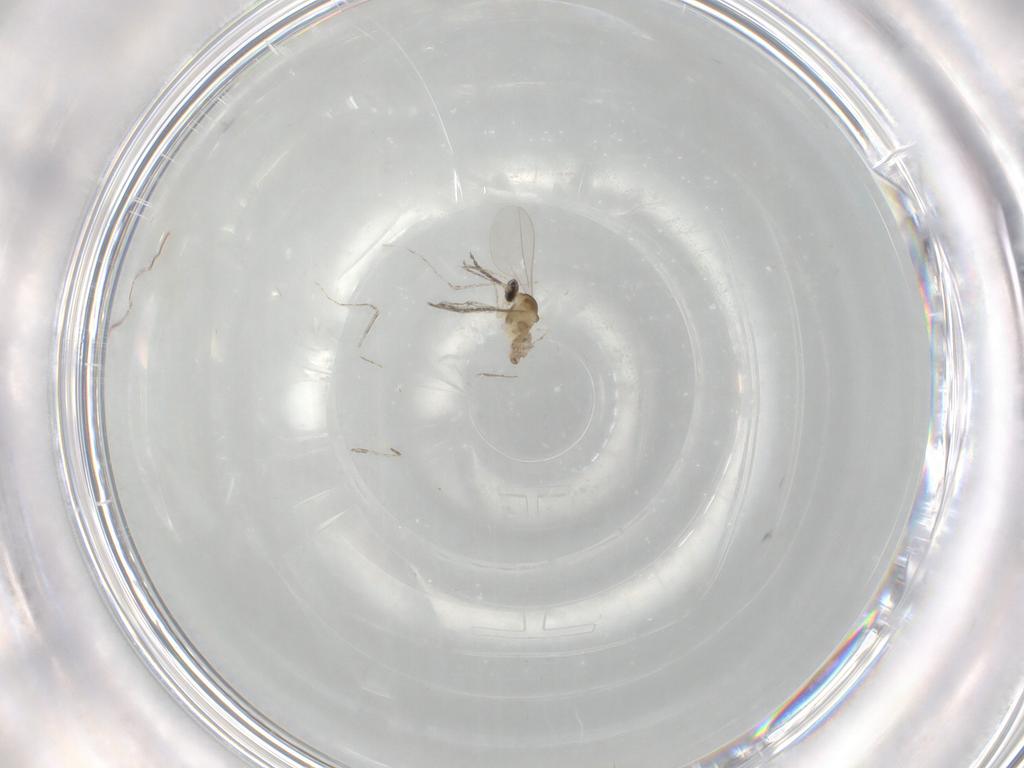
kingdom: Animalia
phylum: Arthropoda
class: Insecta
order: Diptera
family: Cecidomyiidae
